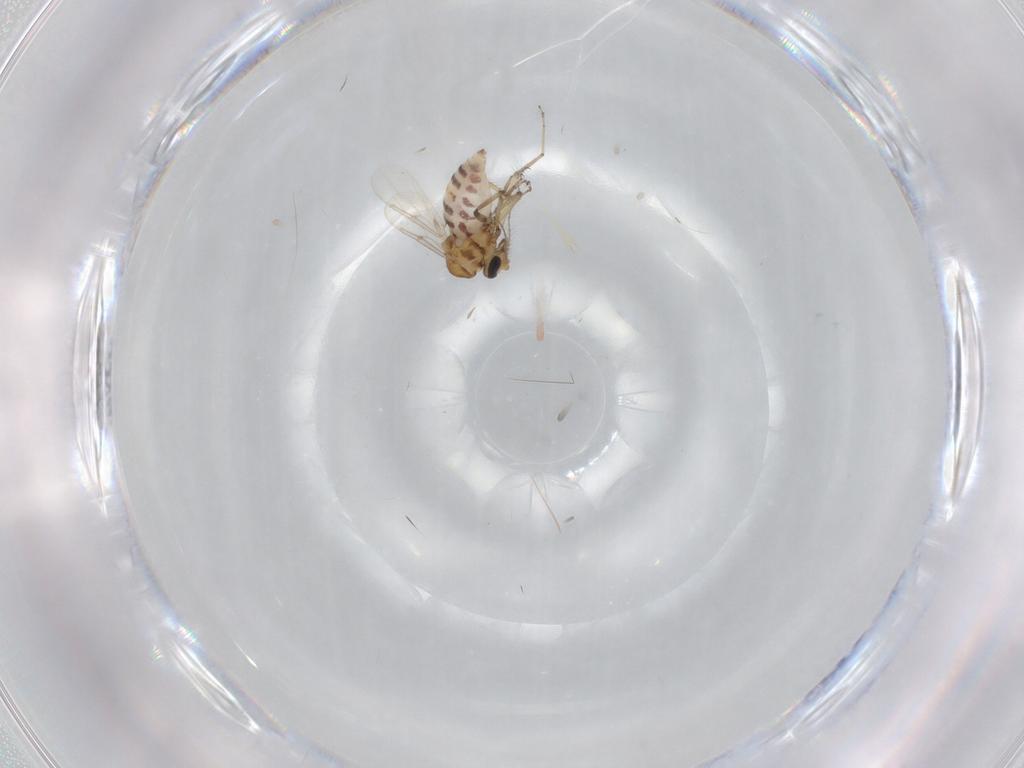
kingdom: Animalia
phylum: Arthropoda
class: Insecta
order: Diptera
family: Ceratopogonidae
